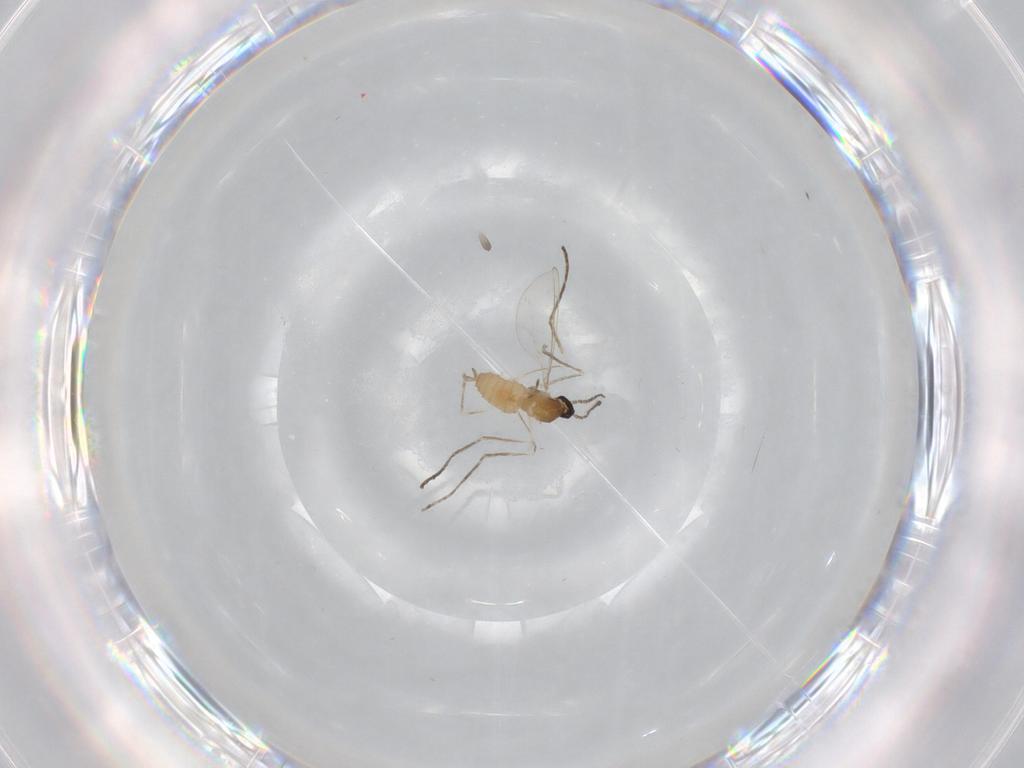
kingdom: Animalia
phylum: Arthropoda
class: Insecta
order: Diptera
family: Cecidomyiidae
